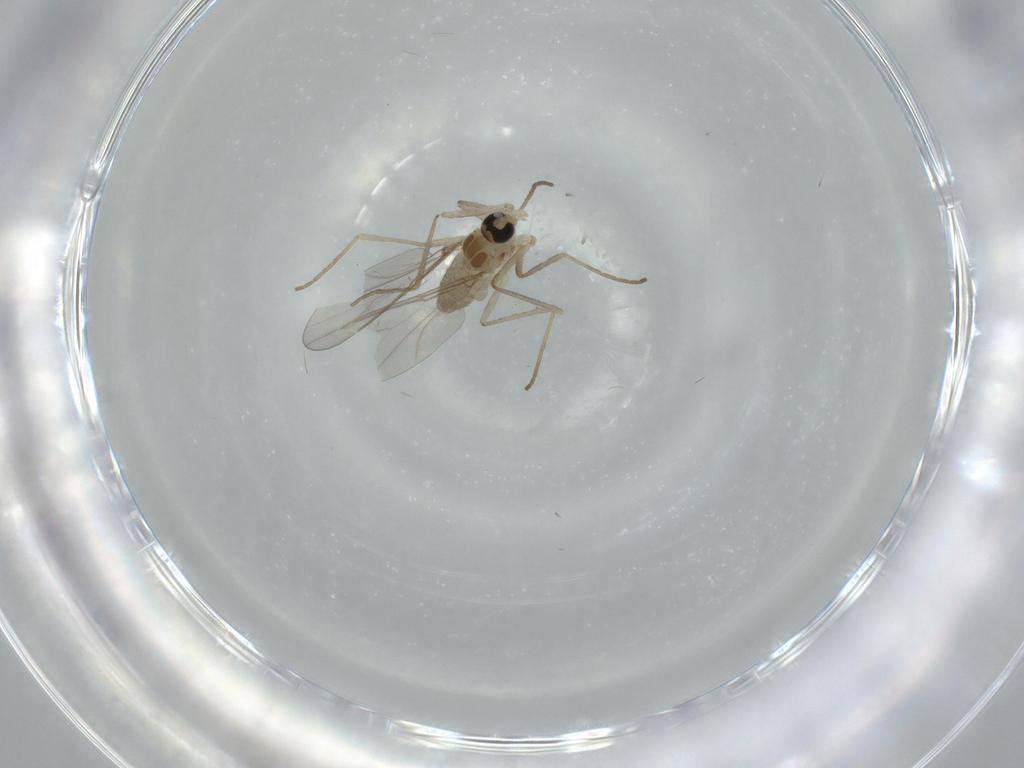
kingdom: Animalia
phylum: Arthropoda
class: Insecta
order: Diptera
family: Cecidomyiidae
